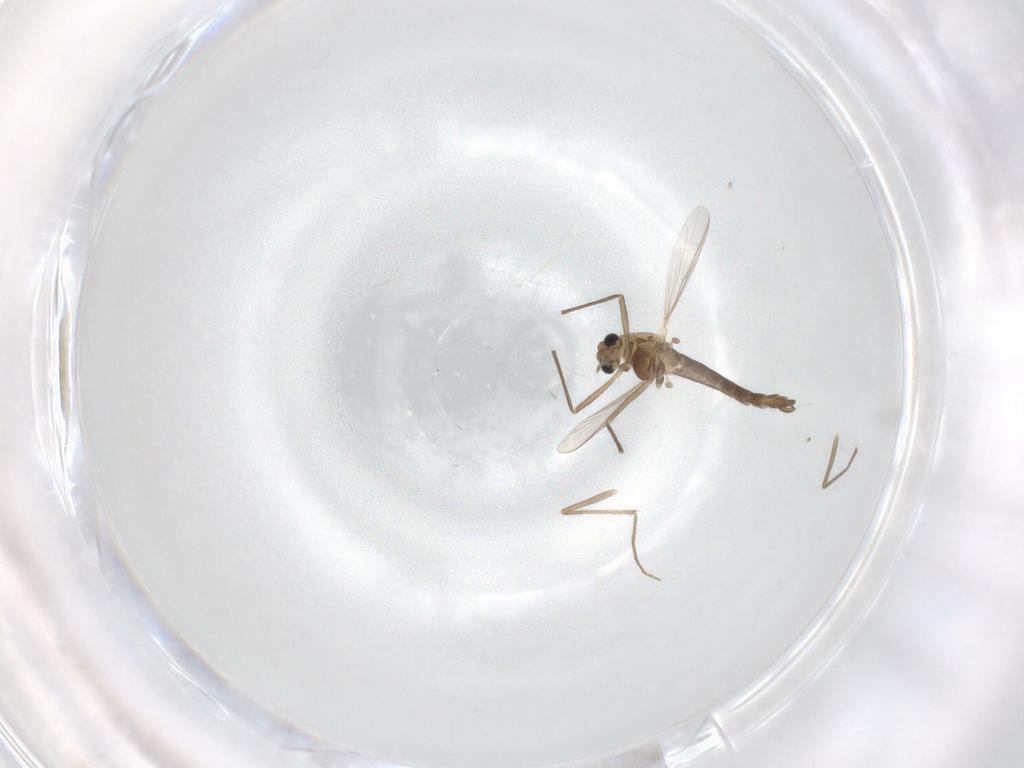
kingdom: Animalia
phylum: Arthropoda
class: Insecta
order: Diptera
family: Chironomidae
